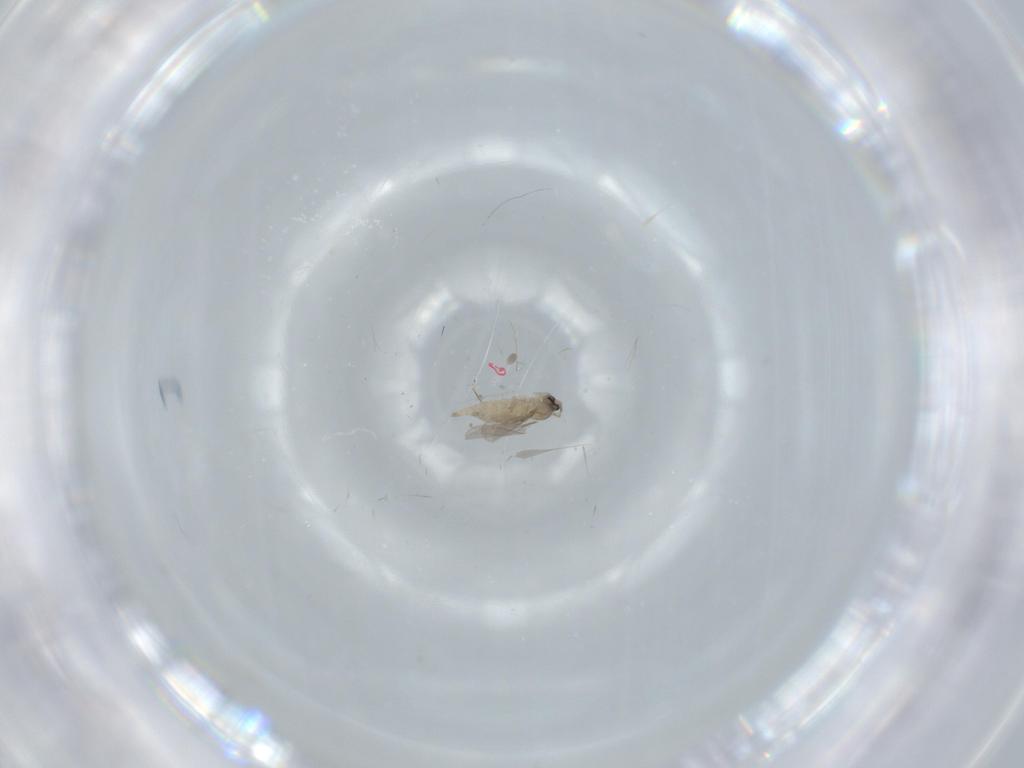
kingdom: Animalia
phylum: Arthropoda
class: Insecta
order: Diptera
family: Cecidomyiidae
